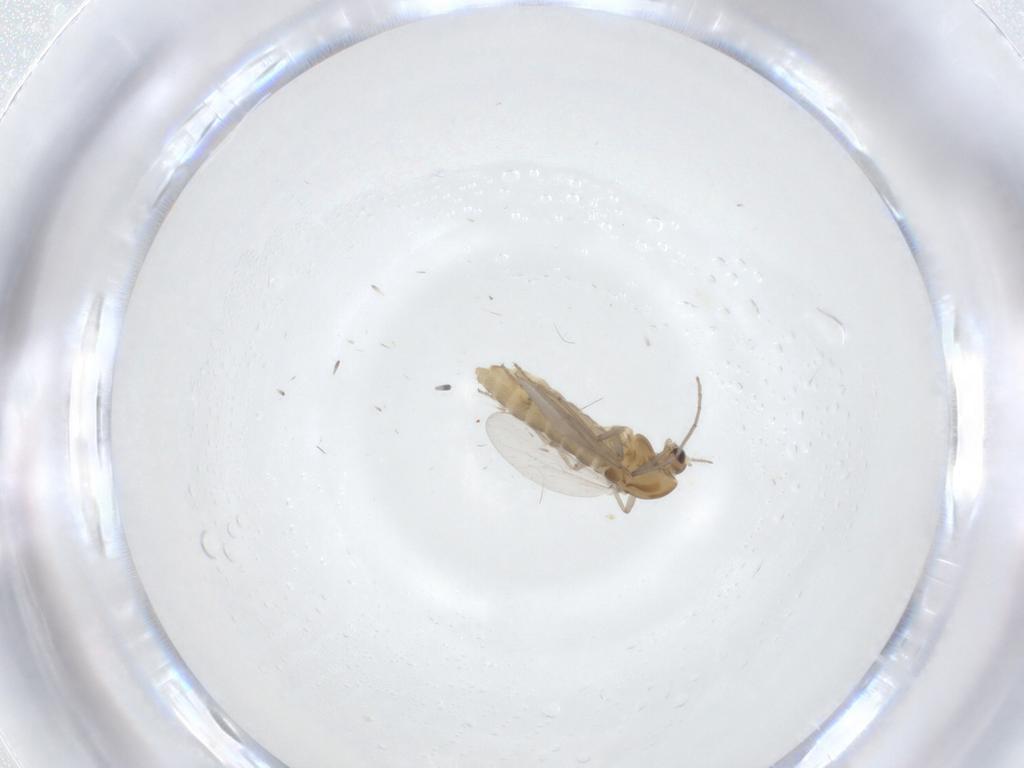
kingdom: Animalia
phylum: Arthropoda
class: Insecta
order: Diptera
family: Chironomidae
